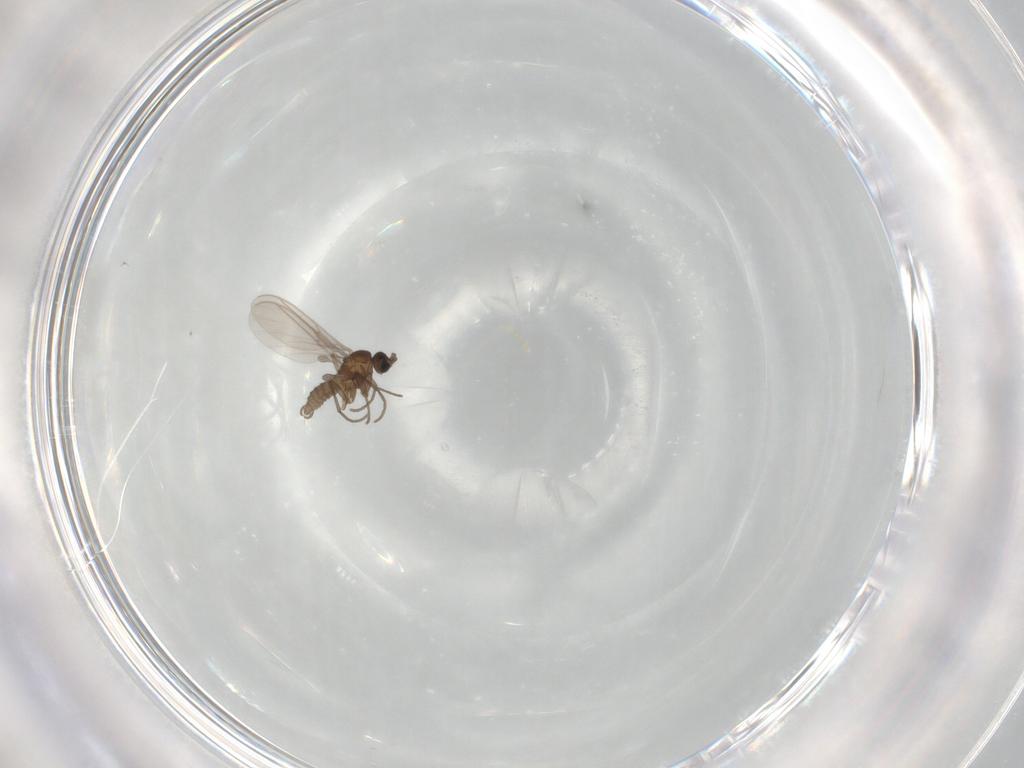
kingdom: Animalia
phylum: Arthropoda
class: Insecta
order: Diptera
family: Sciaridae
